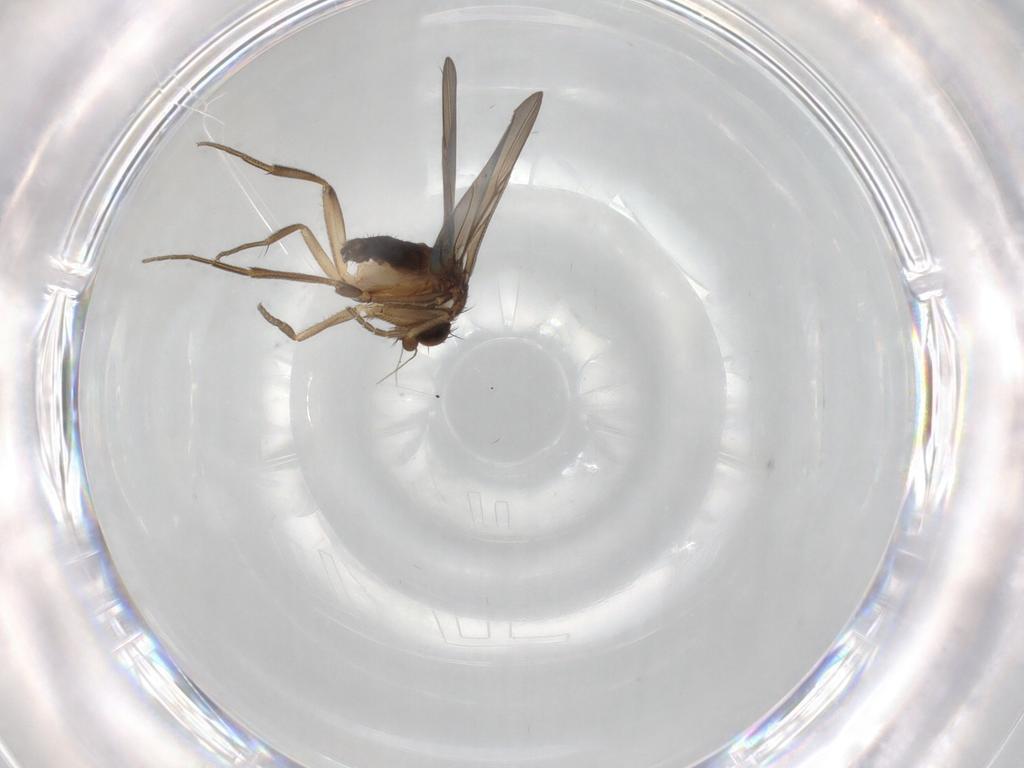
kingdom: Animalia
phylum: Arthropoda
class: Insecta
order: Diptera
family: Phoridae
